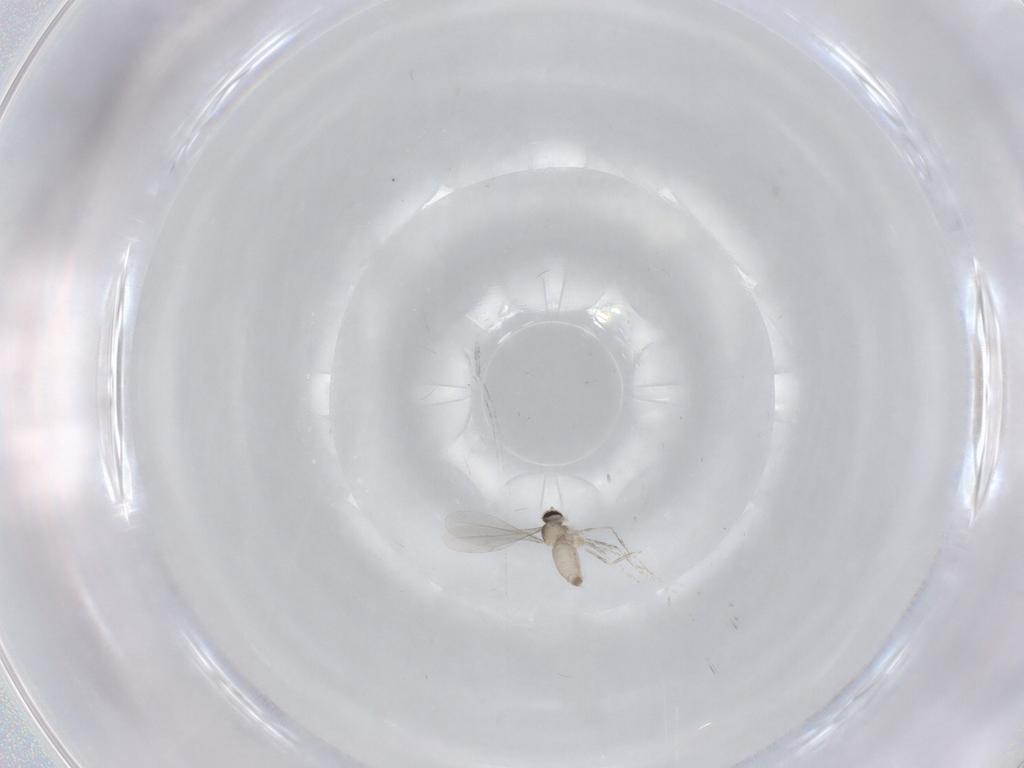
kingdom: Animalia
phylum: Arthropoda
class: Insecta
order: Diptera
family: Cecidomyiidae
